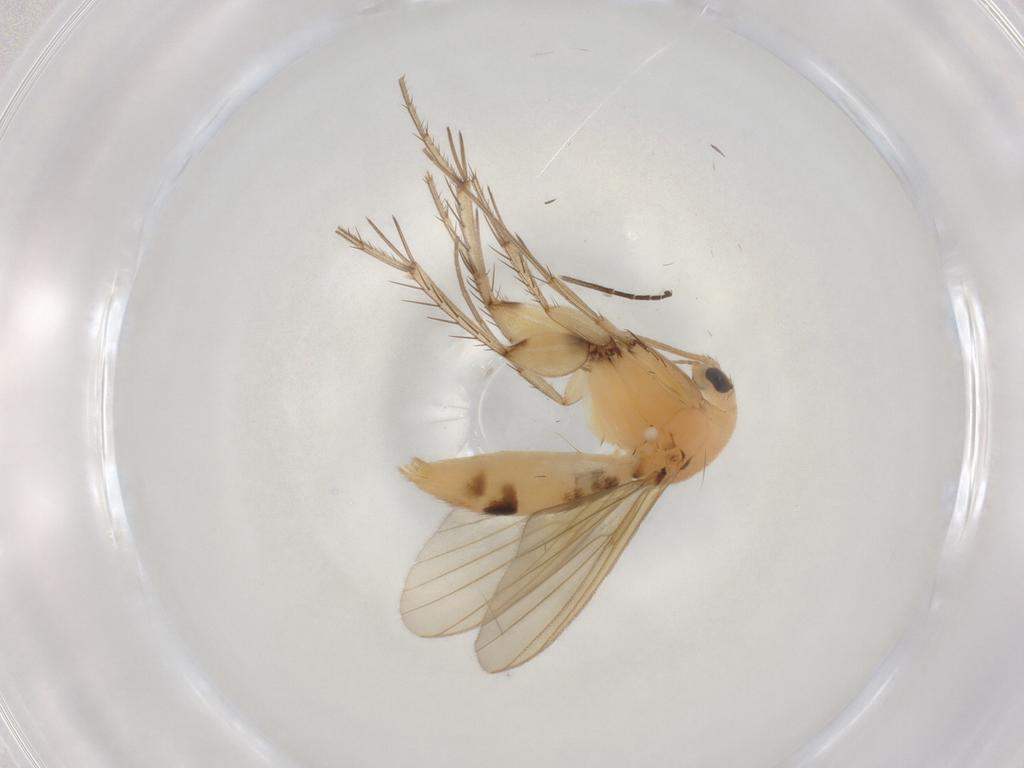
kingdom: Animalia
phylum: Arthropoda
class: Insecta
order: Diptera
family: Mycetophilidae
